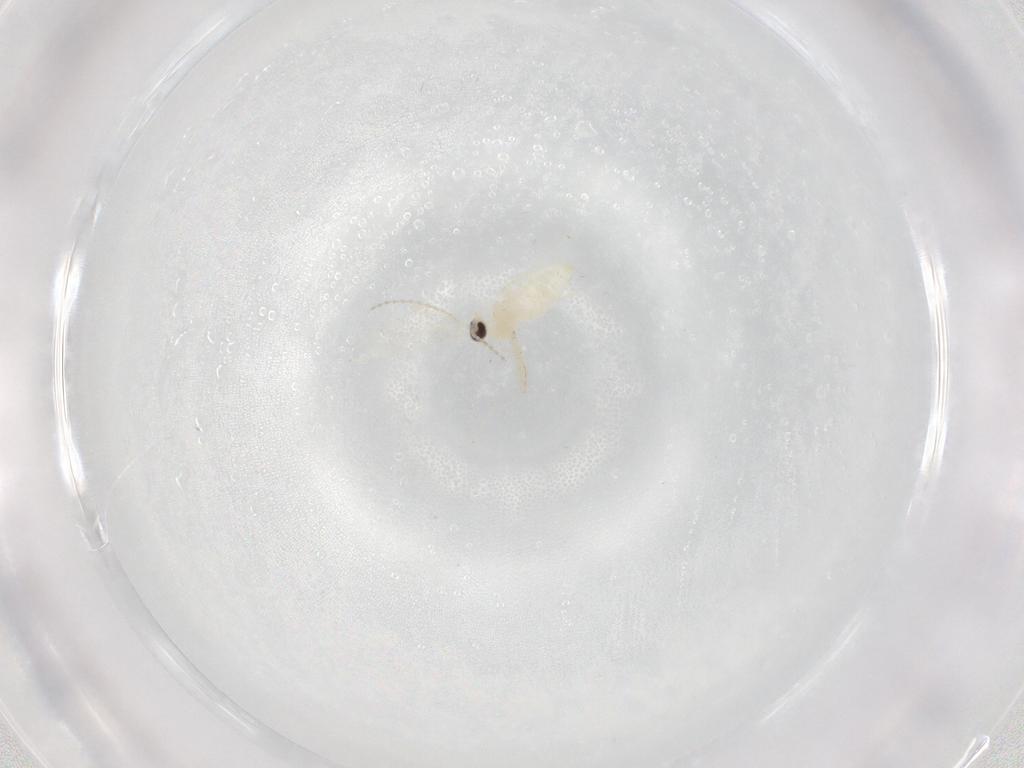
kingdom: Animalia
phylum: Arthropoda
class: Insecta
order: Diptera
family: Cecidomyiidae
